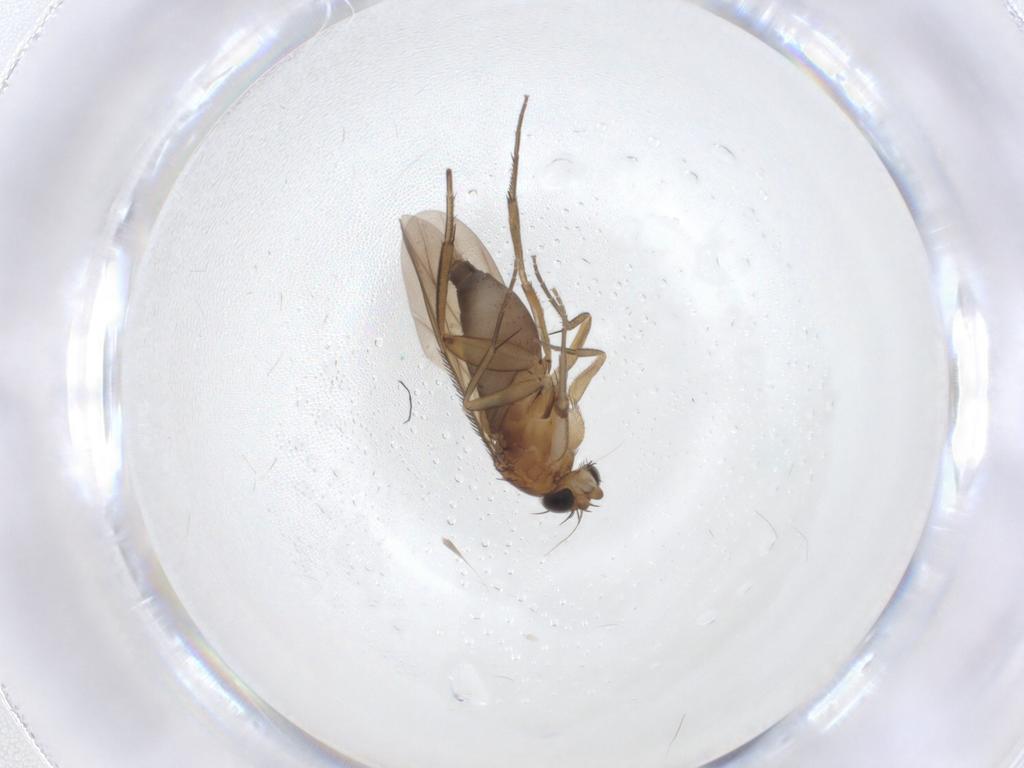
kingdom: Animalia
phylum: Arthropoda
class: Insecta
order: Diptera
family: Phoridae
